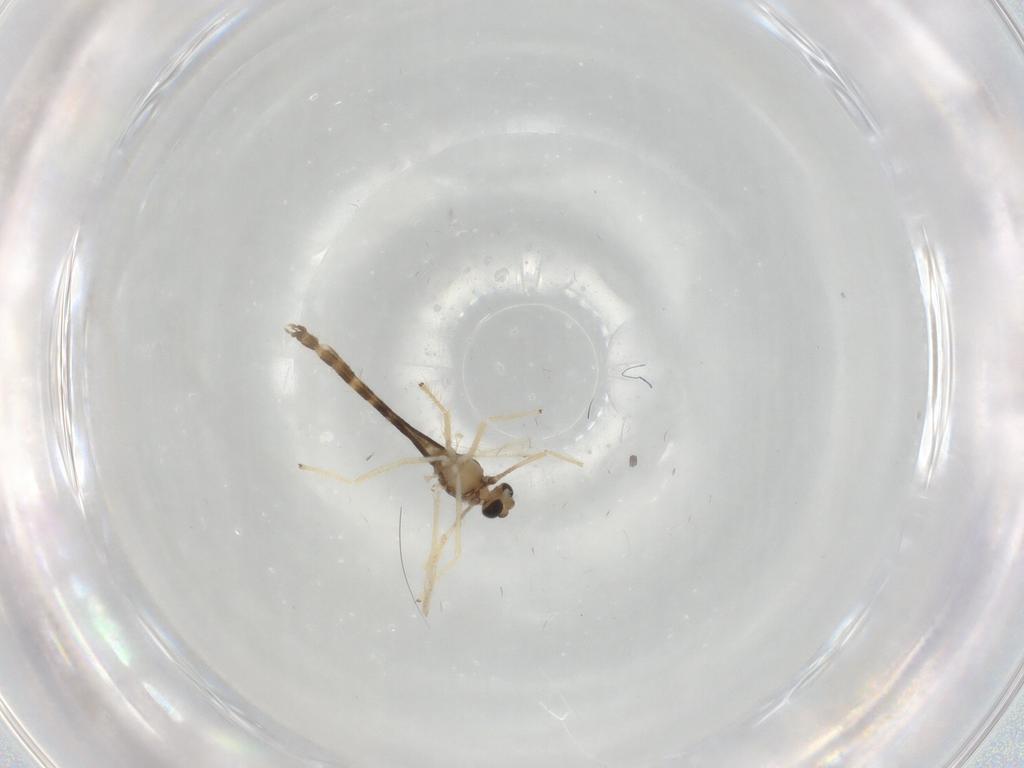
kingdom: Animalia
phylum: Arthropoda
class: Insecta
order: Diptera
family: Chironomidae
